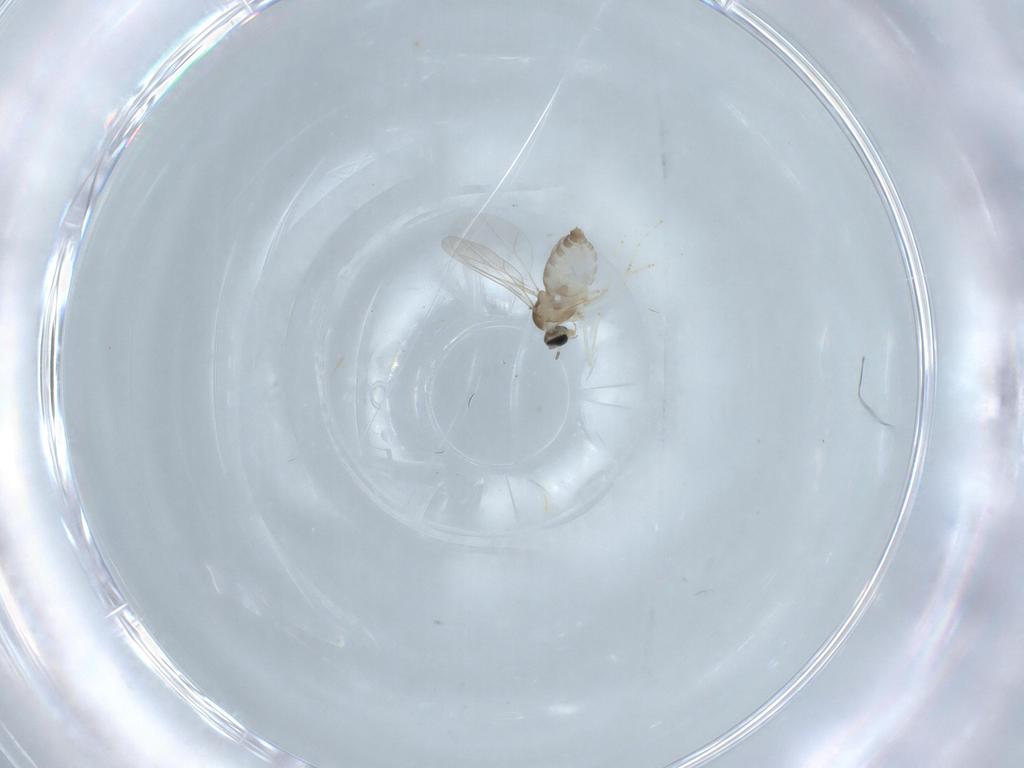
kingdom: Animalia
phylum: Arthropoda
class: Insecta
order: Diptera
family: Cecidomyiidae
